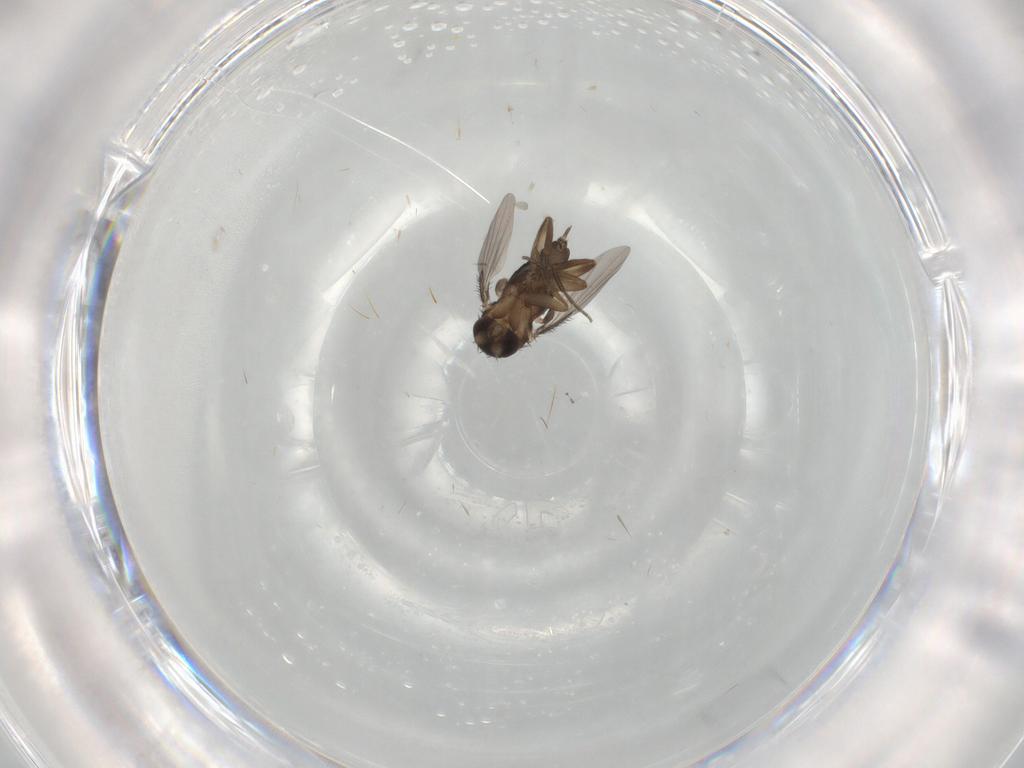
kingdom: Animalia
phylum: Arthropoda
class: Insecta
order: Diptera
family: Phoridae
